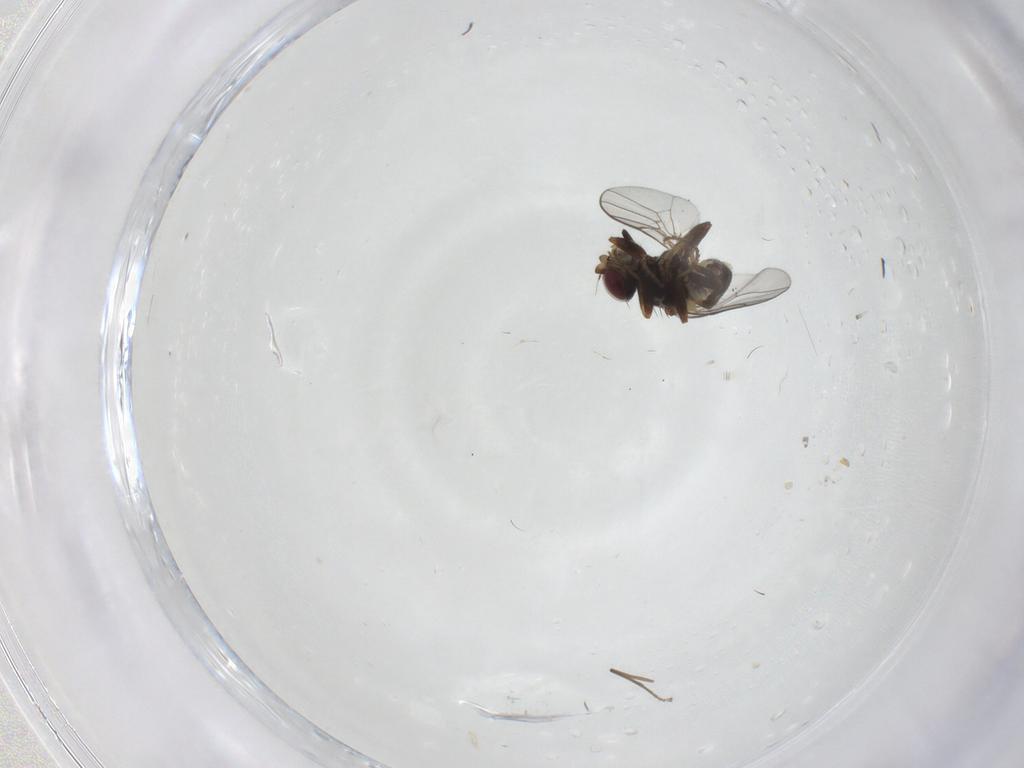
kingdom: Animalia
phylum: Arthropoda
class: Insecta
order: Diptera
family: Chloropidae
